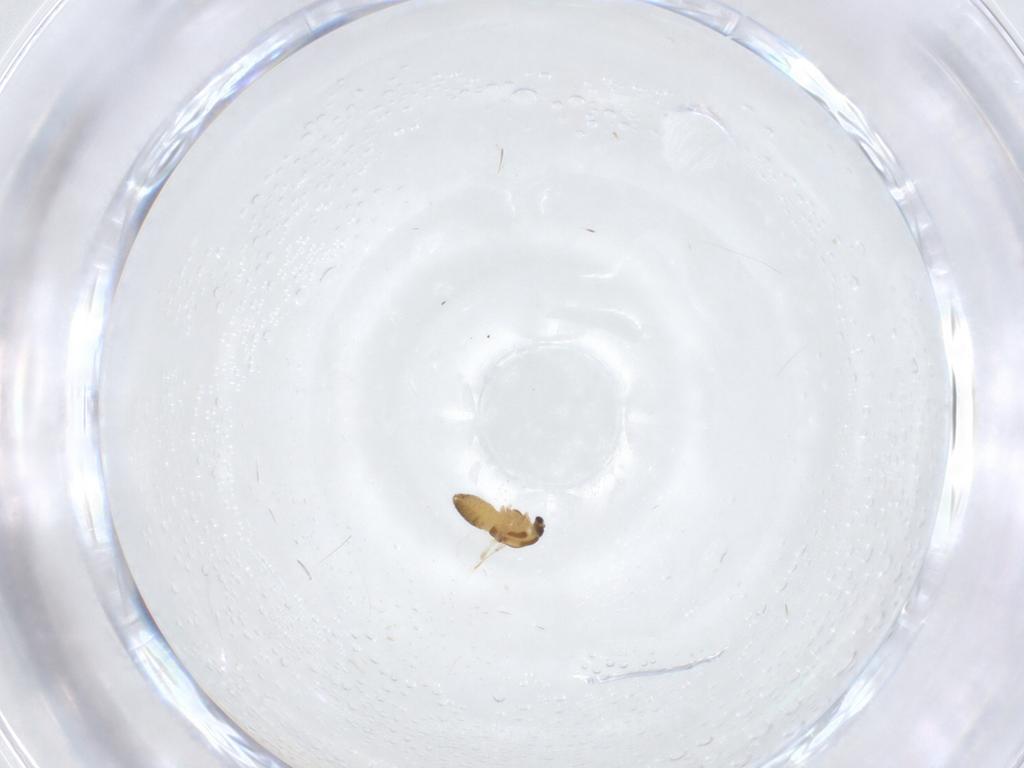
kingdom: Animalia
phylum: Arthropoda
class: Insecta
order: Diptera
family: Chironomidae
